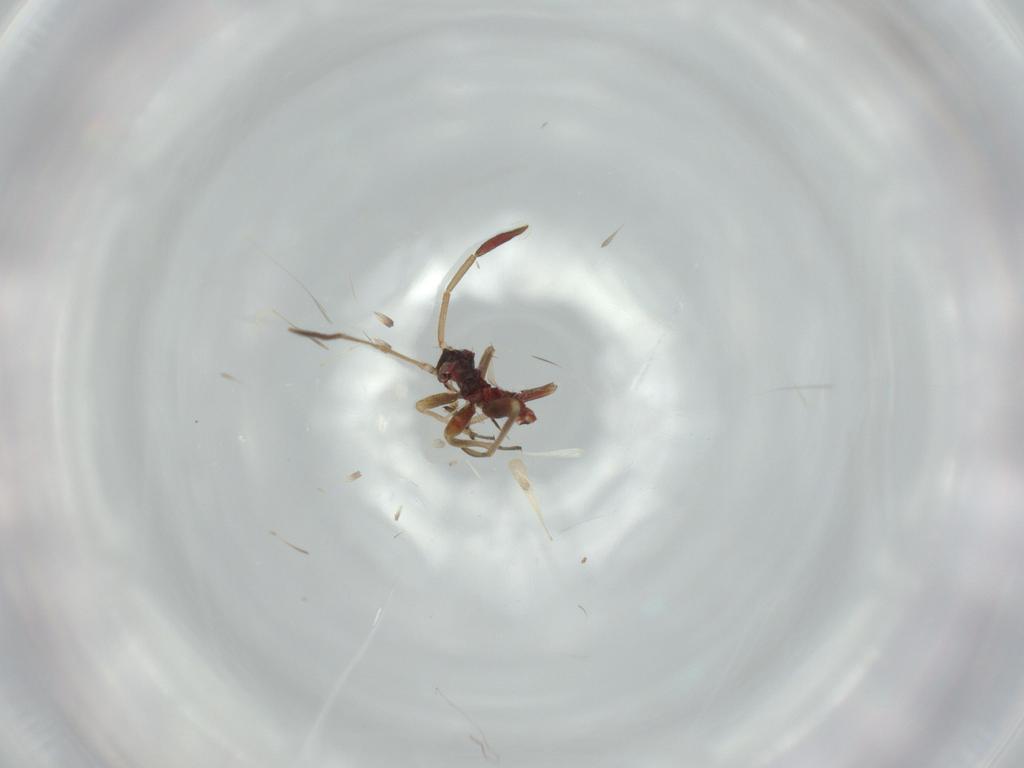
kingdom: Animalia
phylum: Arthropoda
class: Insecta
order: Hemiptera
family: Miridae
